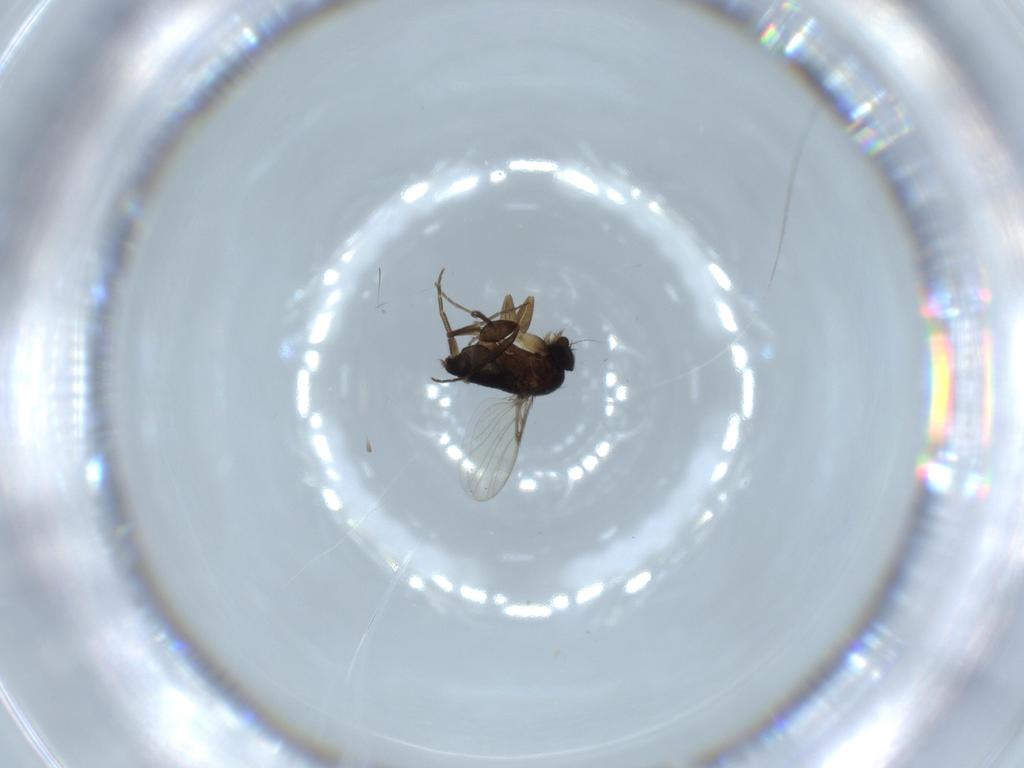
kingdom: Animalia
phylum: Arthropoda
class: Insecta
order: Diptera
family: Phoridae
